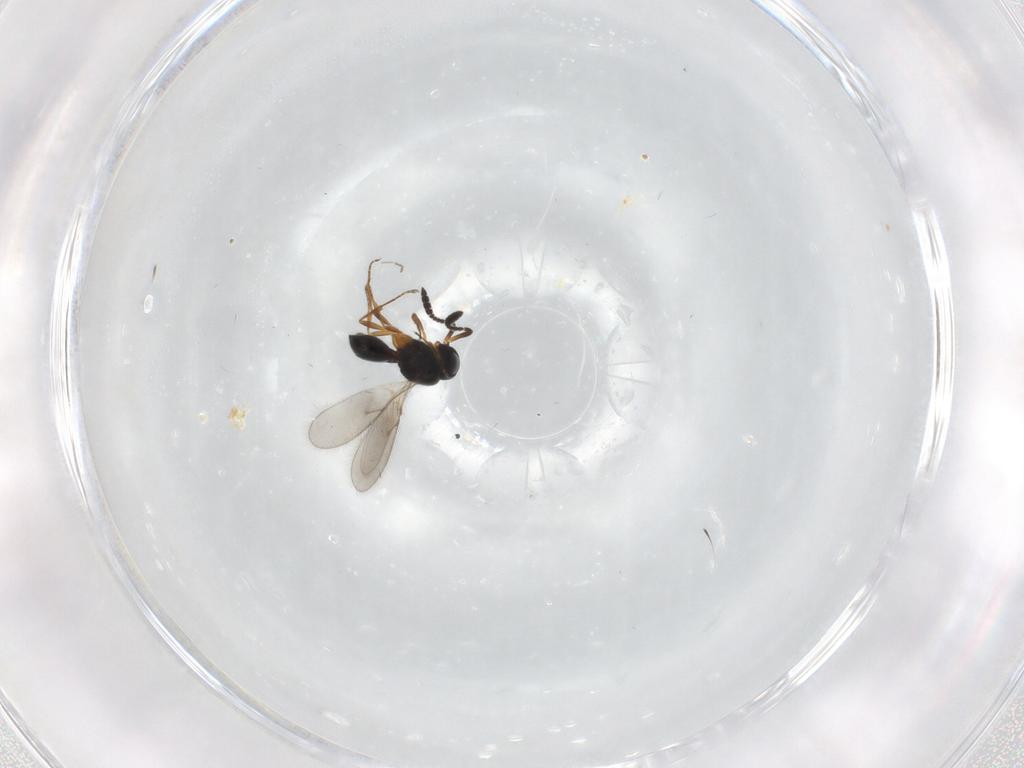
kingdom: Animalia
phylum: Arthropoda
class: Insecta
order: Hymenoptera
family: Scelionidae
